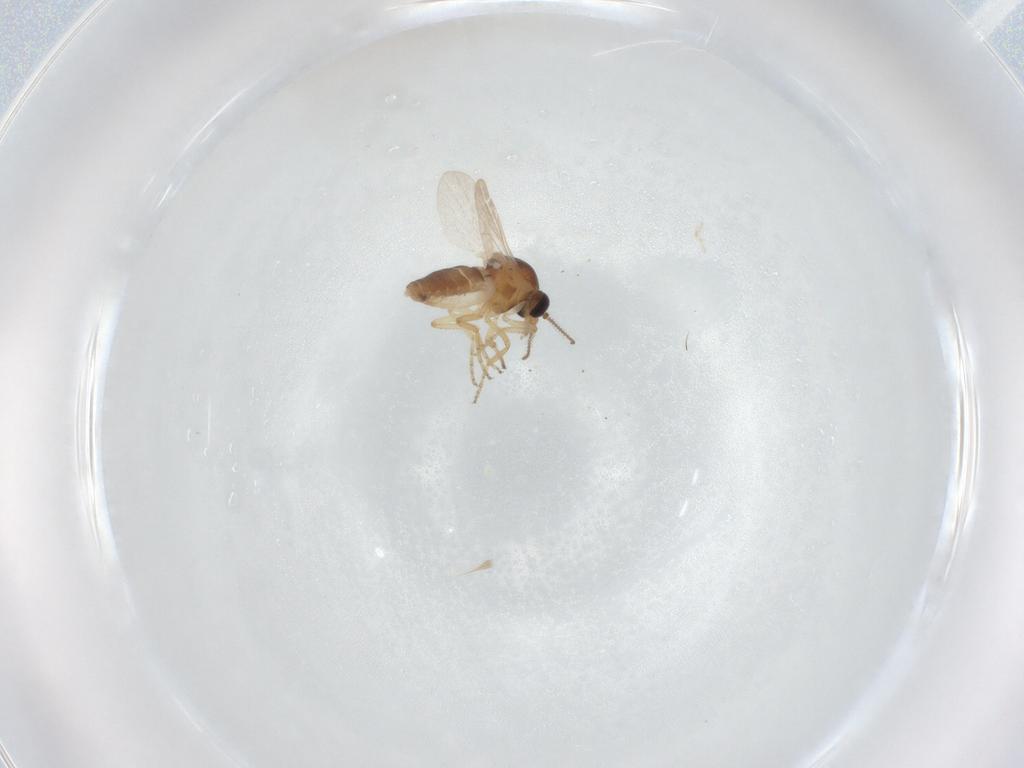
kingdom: Animalia
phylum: Arthropoda
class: Insecta
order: Diptera
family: Ceratopogonidae
